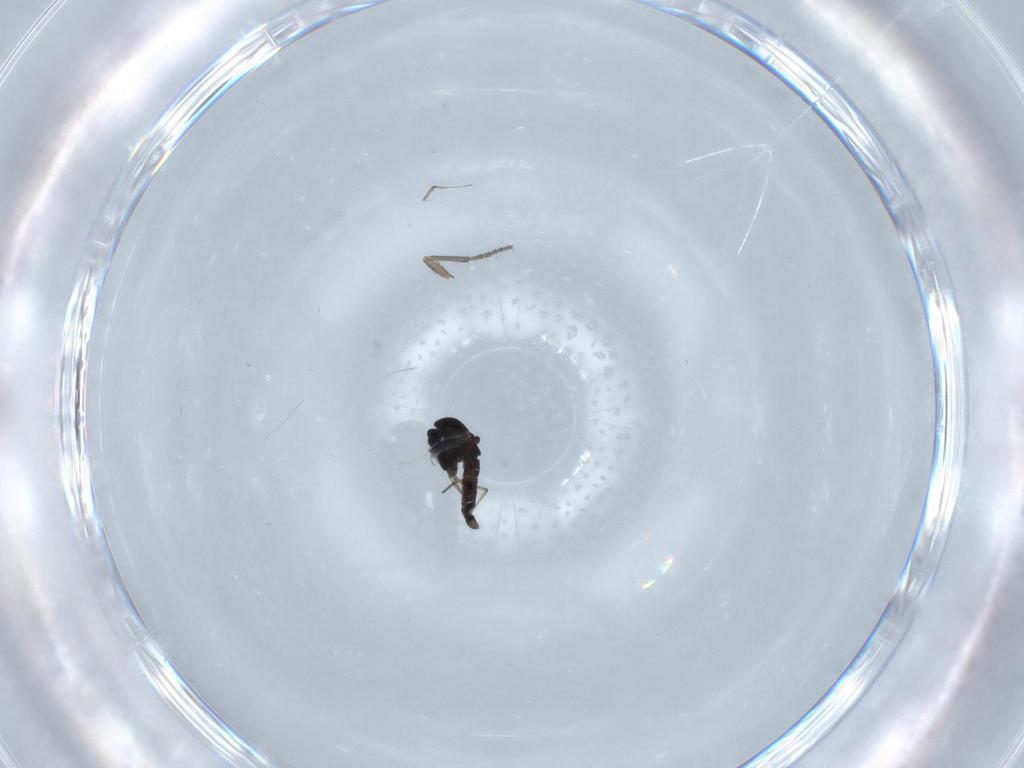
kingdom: Animalia
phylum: Arthropoda
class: Insecta
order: Diptera
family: Chironomidae
